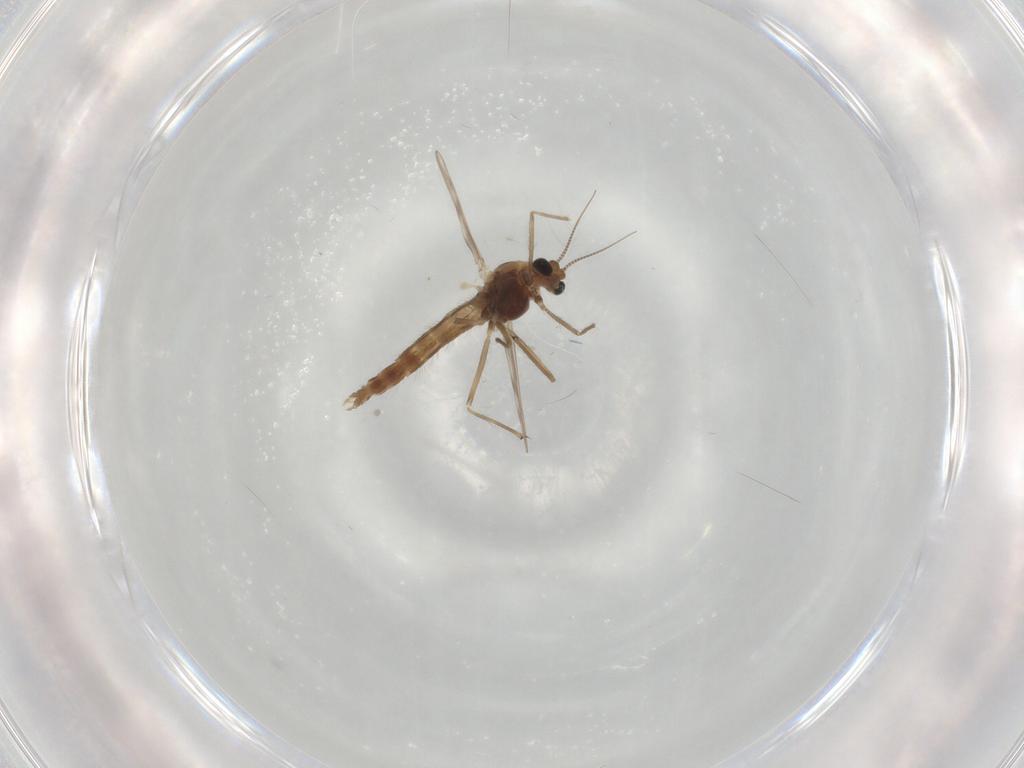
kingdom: Animalia
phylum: Arthropoda
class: Insecta
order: Diptera
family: Chironomidae
